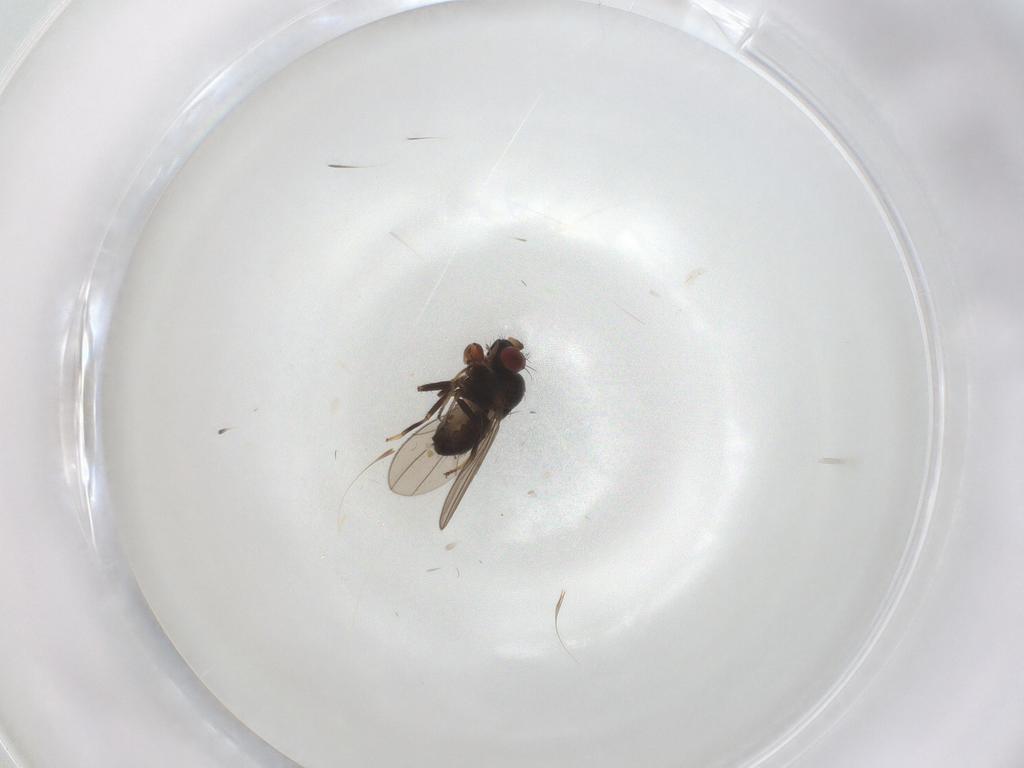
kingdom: Animalia
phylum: Arthropoda
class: Insecta
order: Diptera
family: Ephydridae
